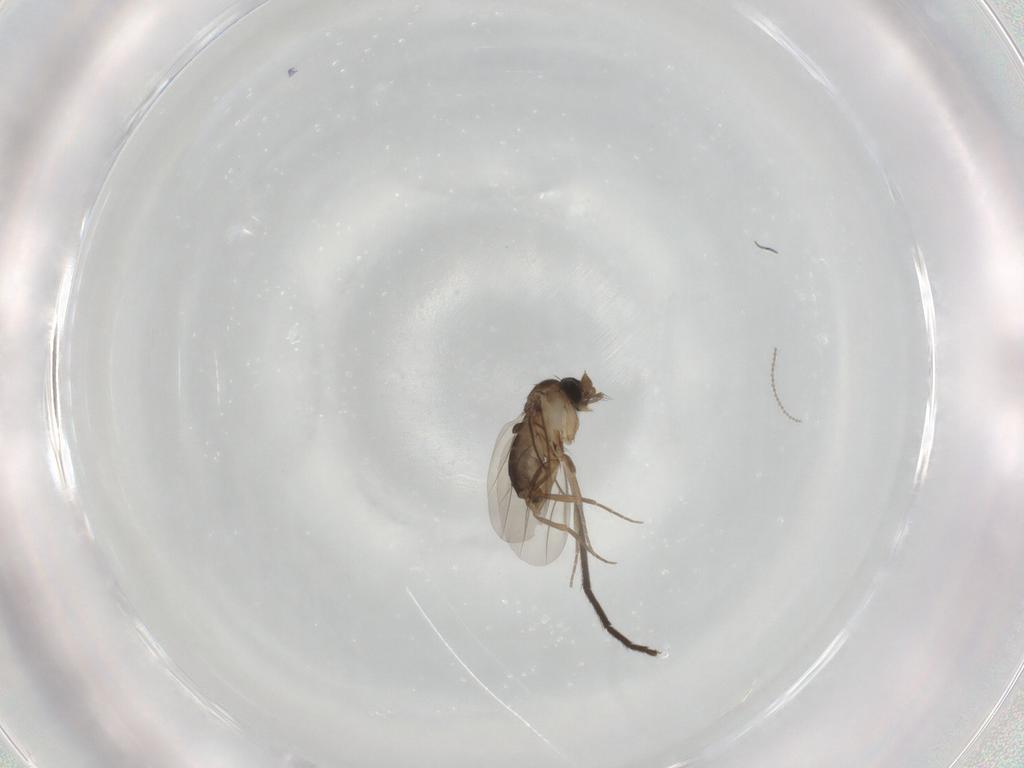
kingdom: Animalia
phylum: Arthropoda
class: Insecta
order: Diptera
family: Chironomidae
